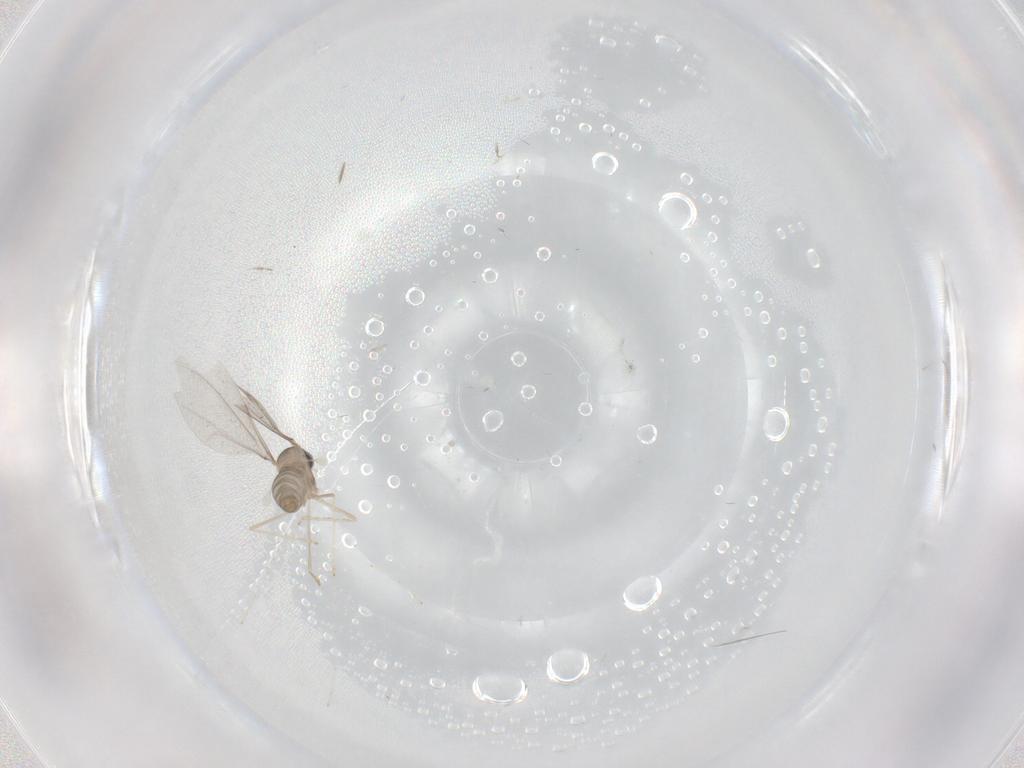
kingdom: Animalia
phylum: Arthropoda
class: Insecta
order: Diptera
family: Cecidomyiidae
